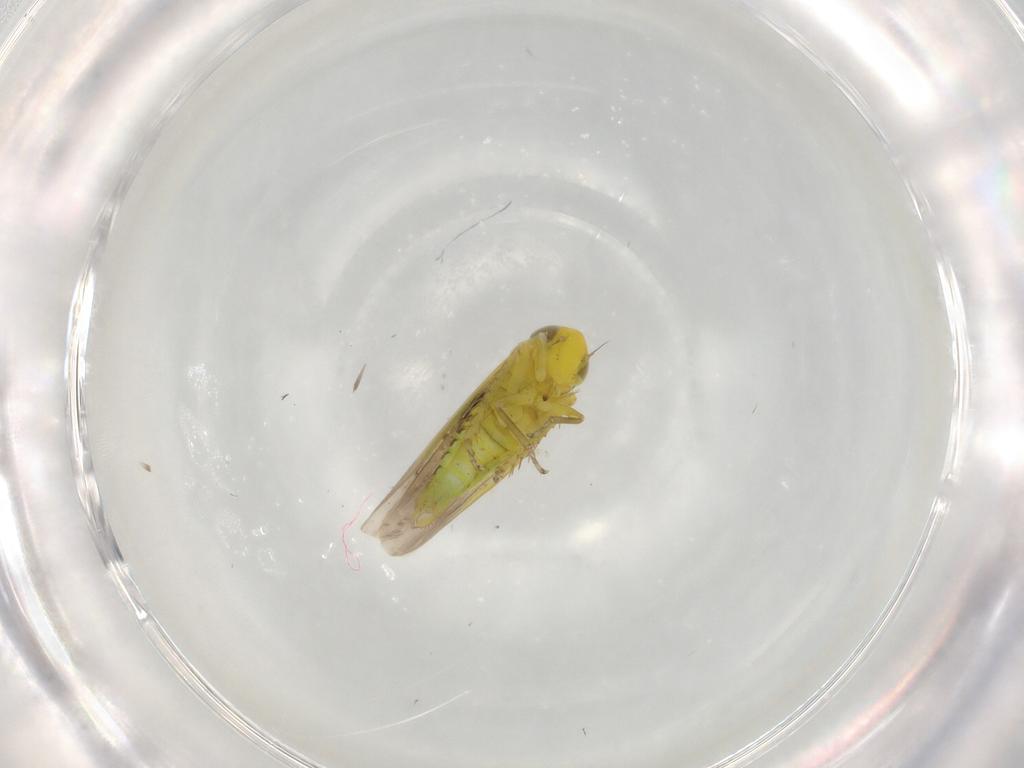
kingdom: Animalia
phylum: Arthropoda
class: Insecta
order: Hemiptera
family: Cicadellidae
